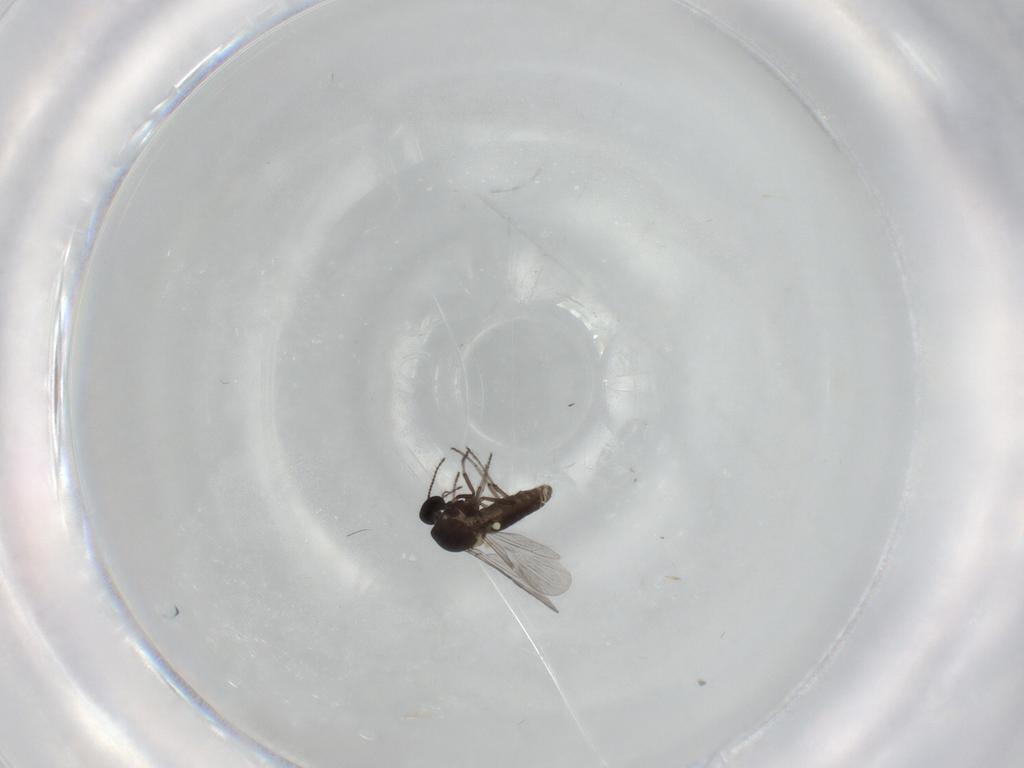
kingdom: Animalia
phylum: Arthropoda
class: Insecta
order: Diptera
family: Ceratopogonidae
